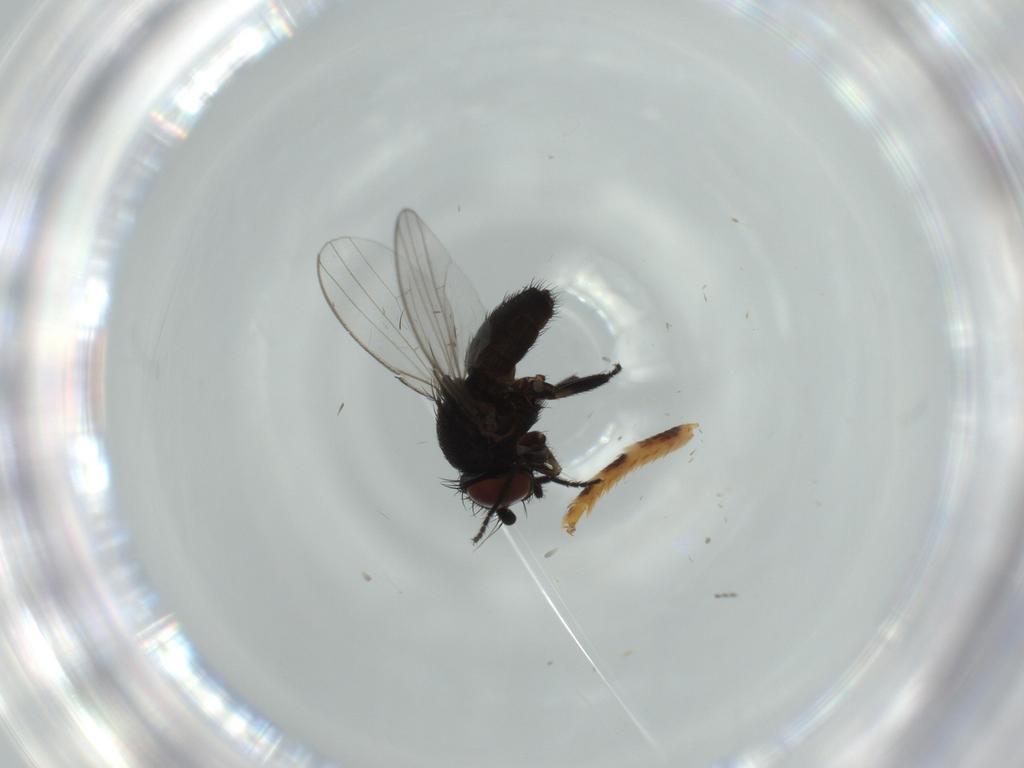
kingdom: Animalia
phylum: Arthropoda
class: Insecta
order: Diptera
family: Milichiidae
